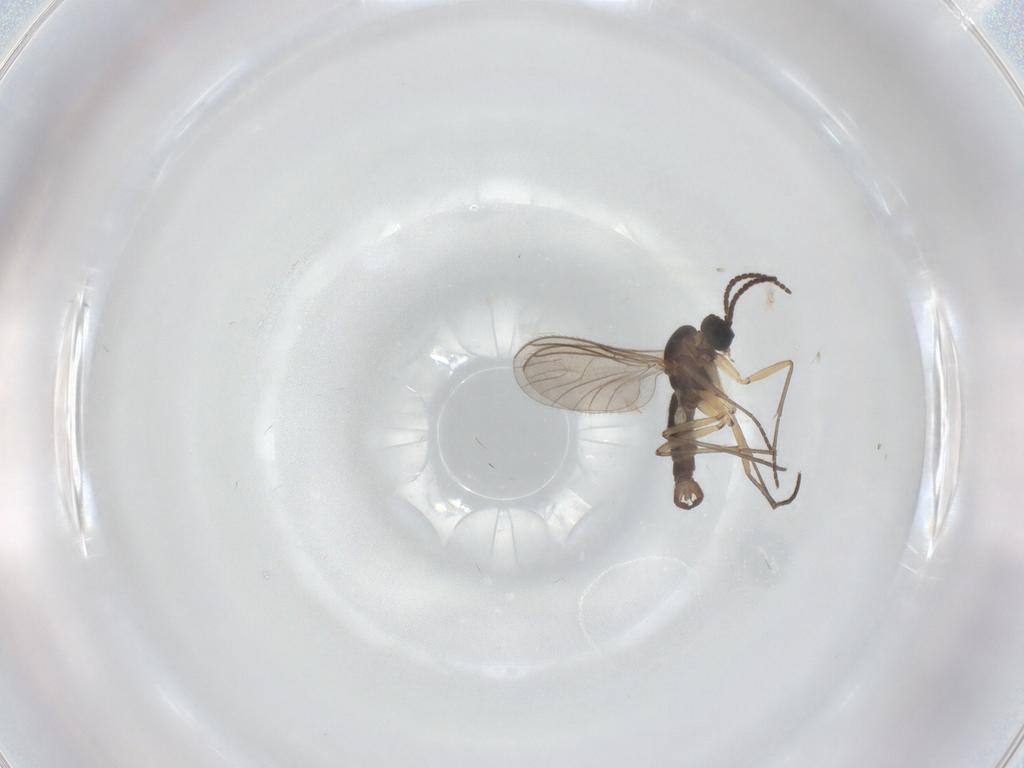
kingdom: Animalia
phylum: Arthropoda
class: Insecta
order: Diptera
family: Sciaridae
